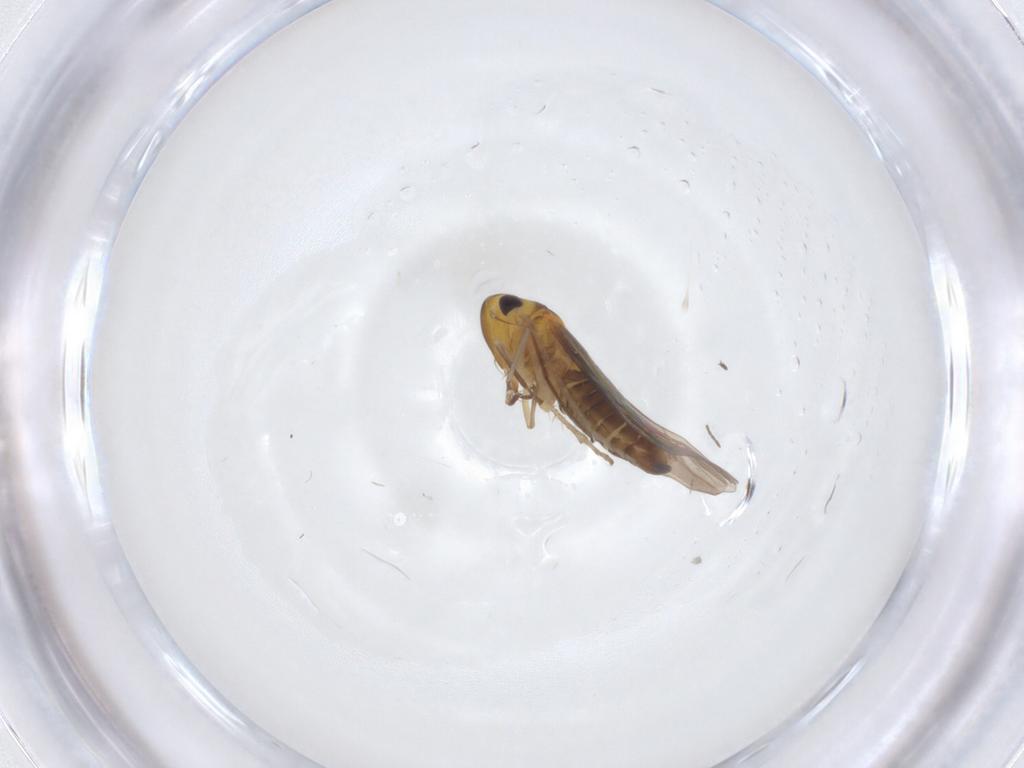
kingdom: Animalia
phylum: Arthropoda
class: Insecta
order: Hemiptera
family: Cicadellidae
